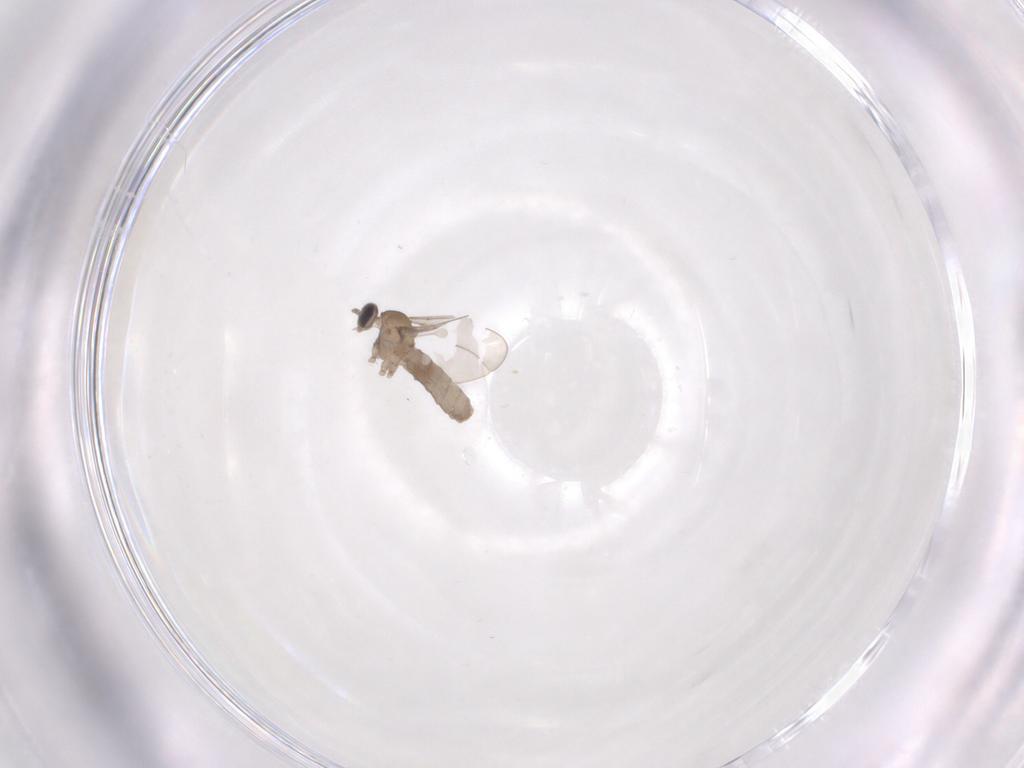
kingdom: Animalia
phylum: Arthropoda
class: Insecta
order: Diptera
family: Cecidomyiidae
